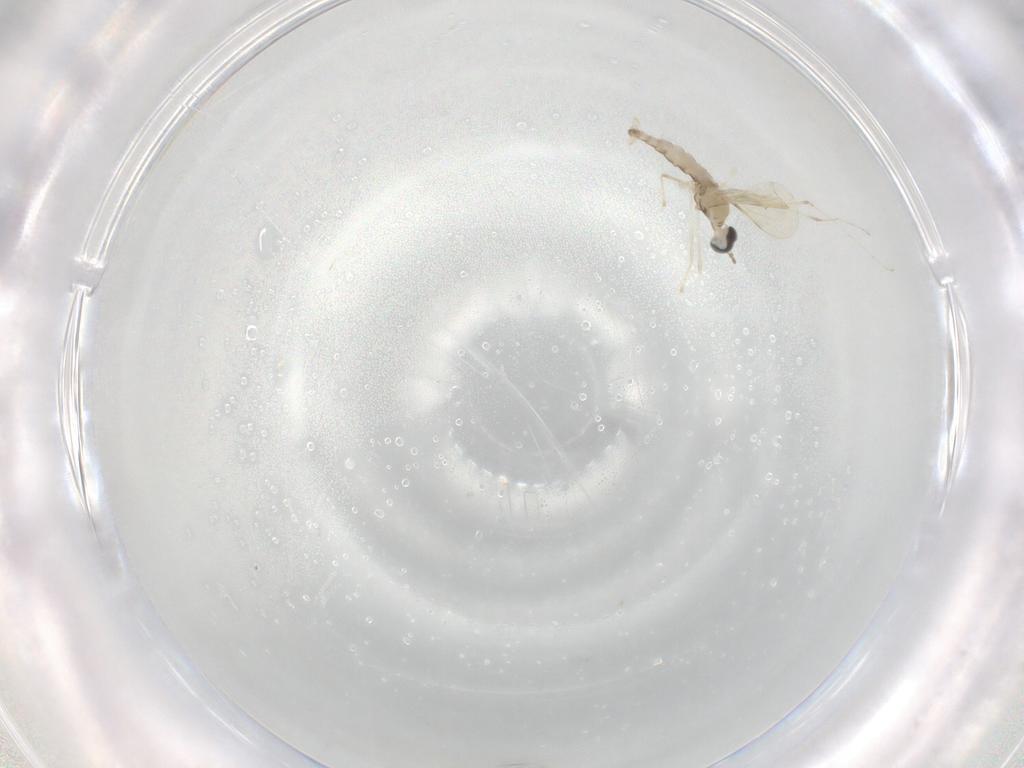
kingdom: Animalia
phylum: Arthropoda
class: Insecta
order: Diptera
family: Cecidomyiidae
